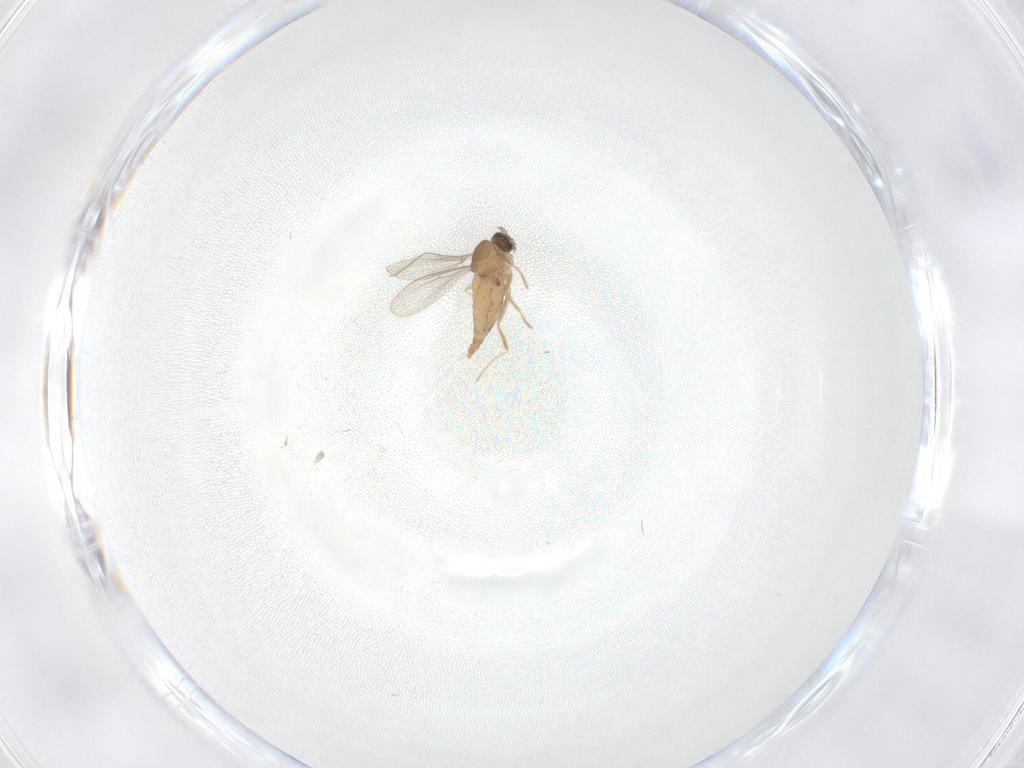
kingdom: Animalia
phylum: Arthropoda
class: Insecta
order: Diptera
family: Cecidomyiidae
